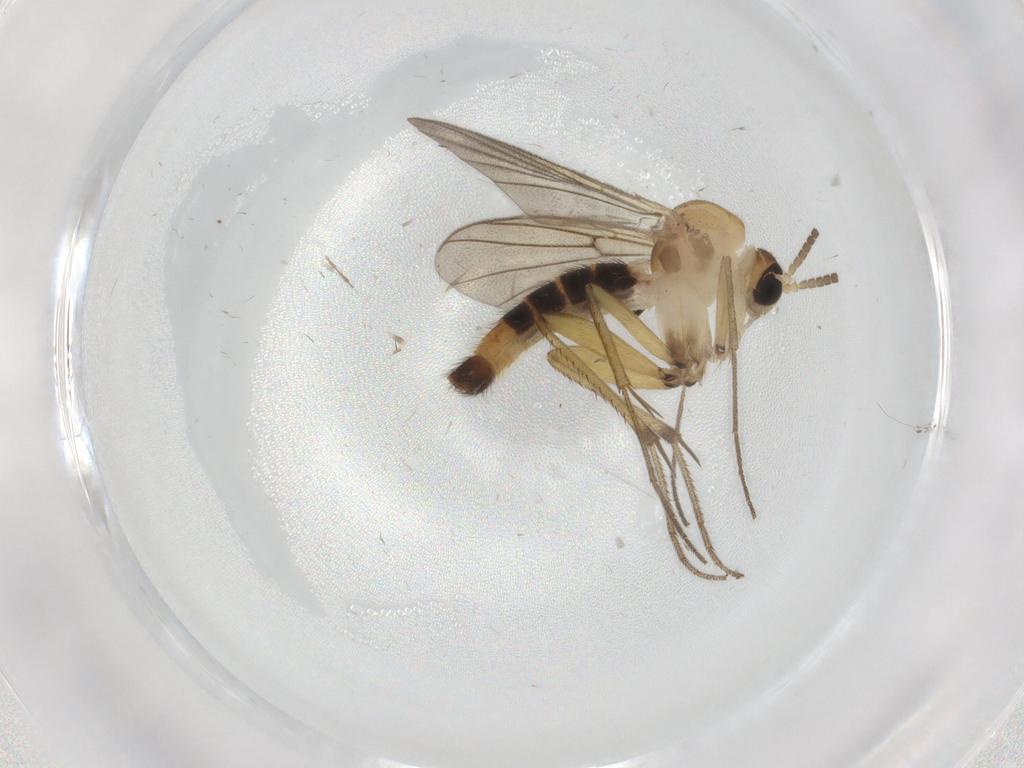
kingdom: Animalia
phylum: Arthropoda
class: Insecta
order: Diptera
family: Mycetophilidae
